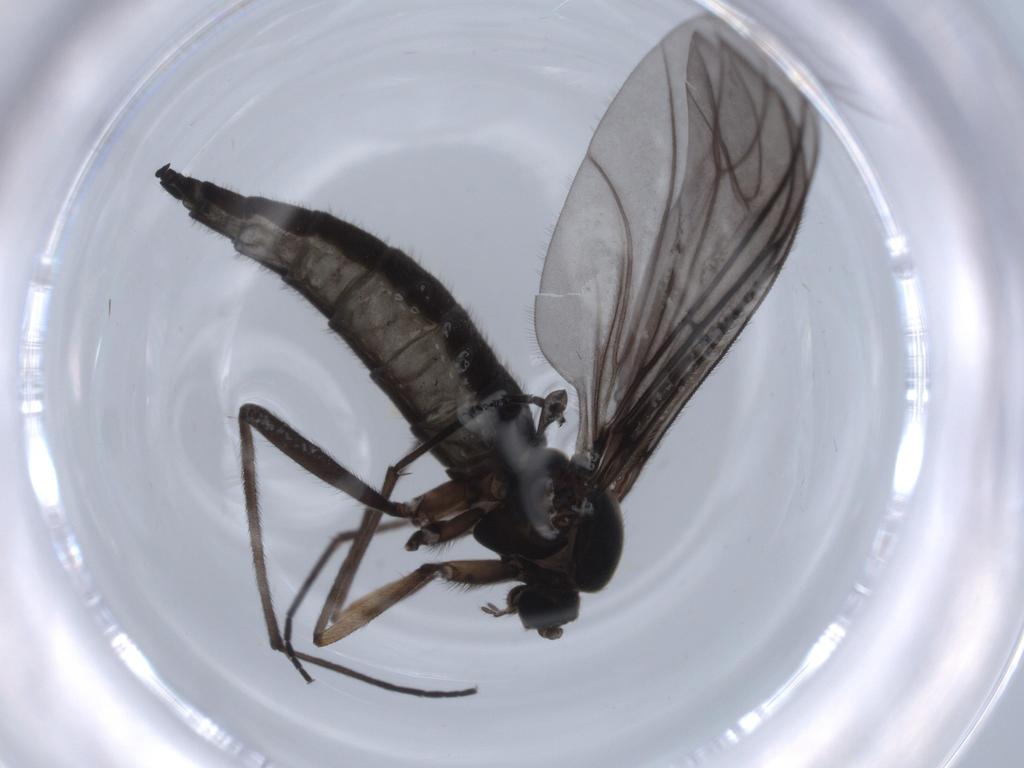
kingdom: Animalia
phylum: Arthropoda
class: Insecta
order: Diptera
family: Sciaridae
